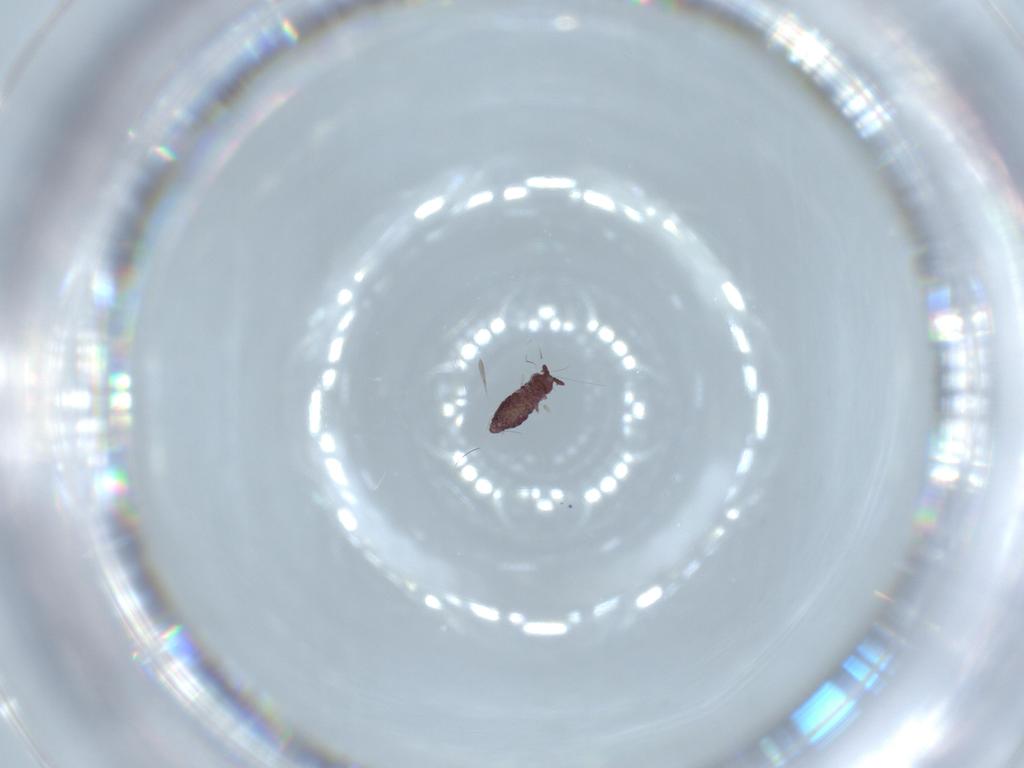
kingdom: Animalia
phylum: Arthropoda
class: Collembola
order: Poduromorpha
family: Hypogastruridae
